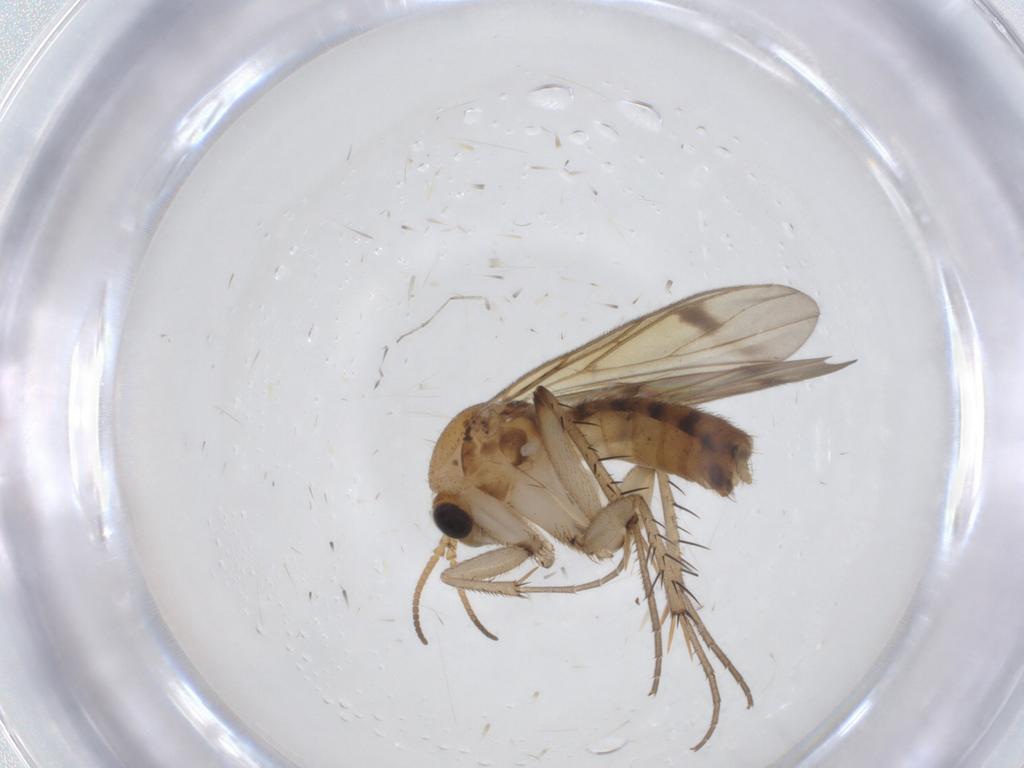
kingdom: Animalia
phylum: Arthropoda
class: Insecta
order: Diptera
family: Mycetophilidae
